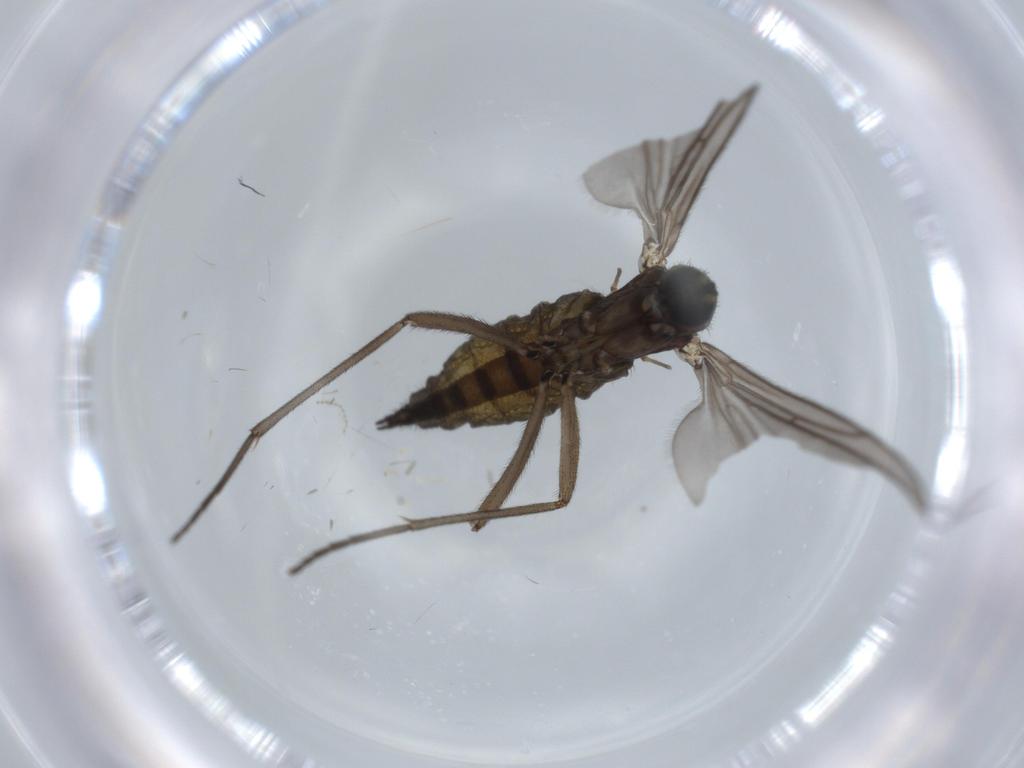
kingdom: Animalia
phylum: Arthropoda
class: Insecta
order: Diptera
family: Sciaridae
